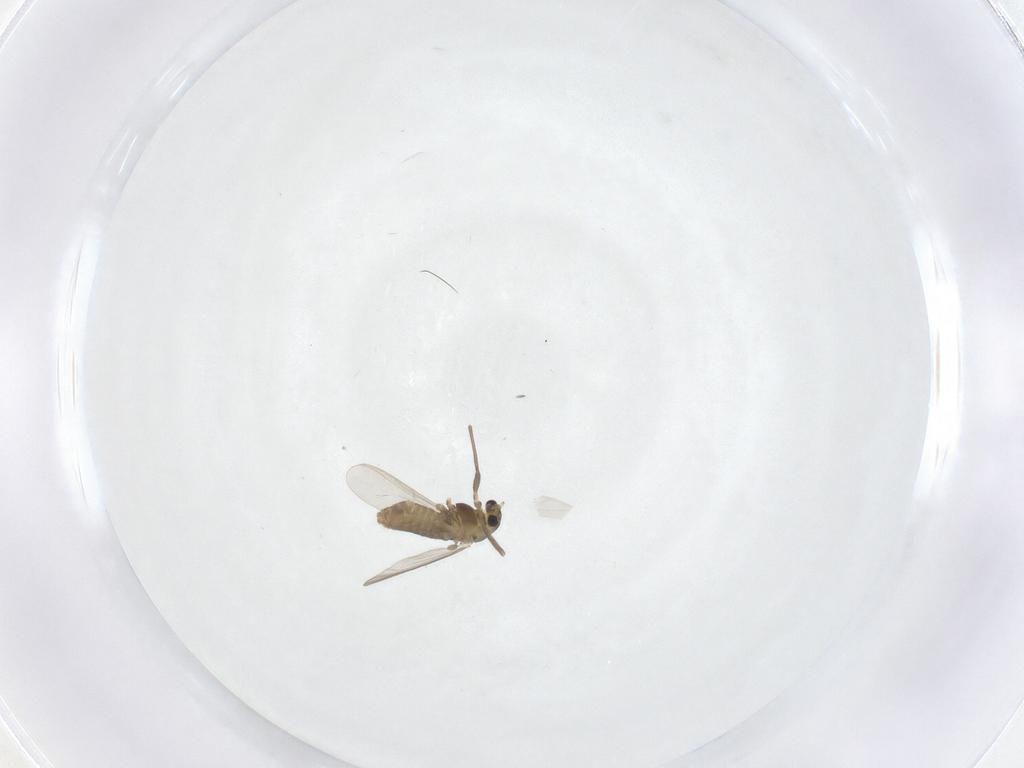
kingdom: Animalia
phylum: Arthropoda
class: Insecta
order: Diptera
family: Chironomidae
